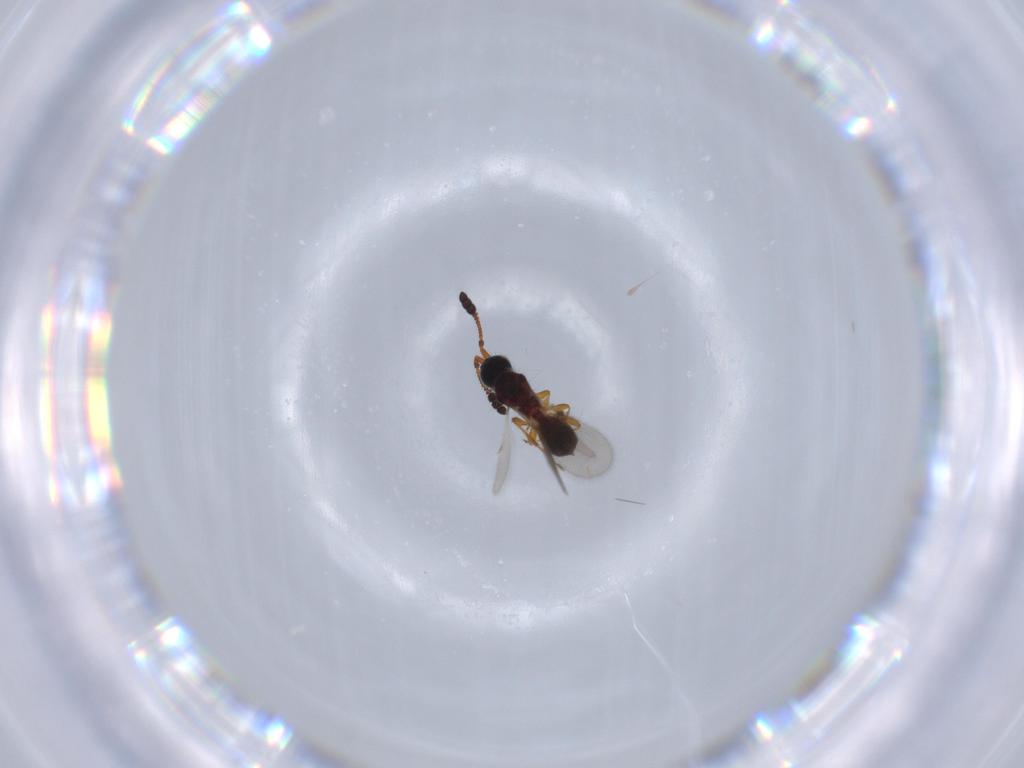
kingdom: Animalia
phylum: Arthropoda
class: Insecta
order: Hymenoptera
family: Diapriidae
